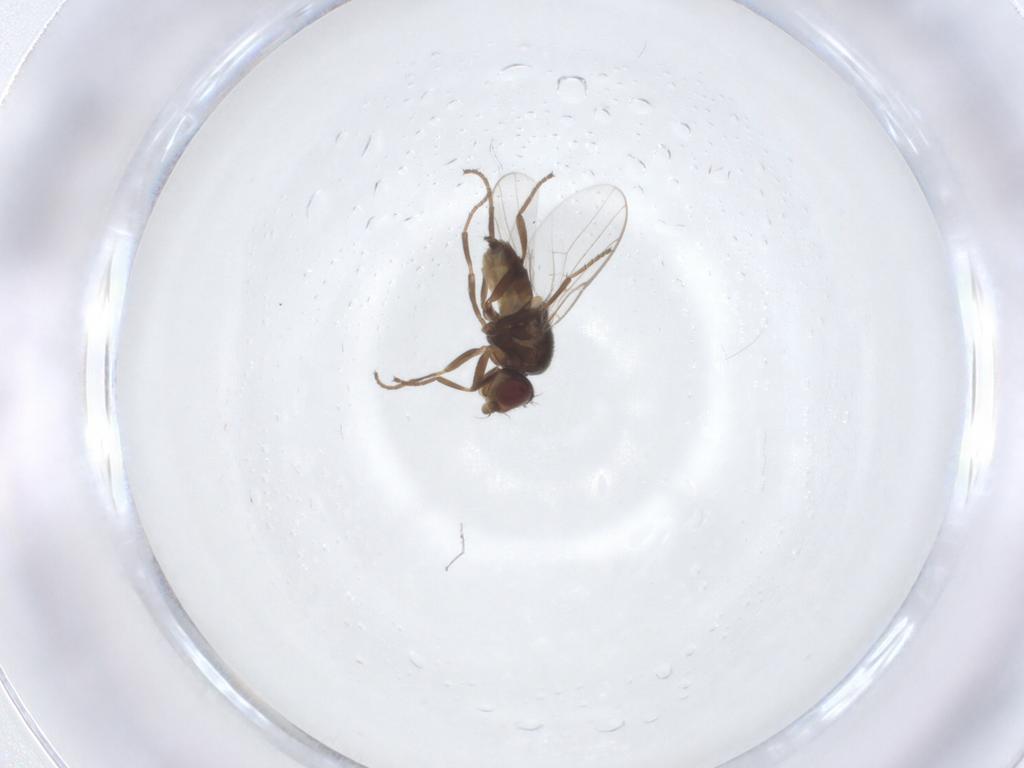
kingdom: Animalia
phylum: Arthropoda
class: Insecta
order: Diptera
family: Chloropidae
